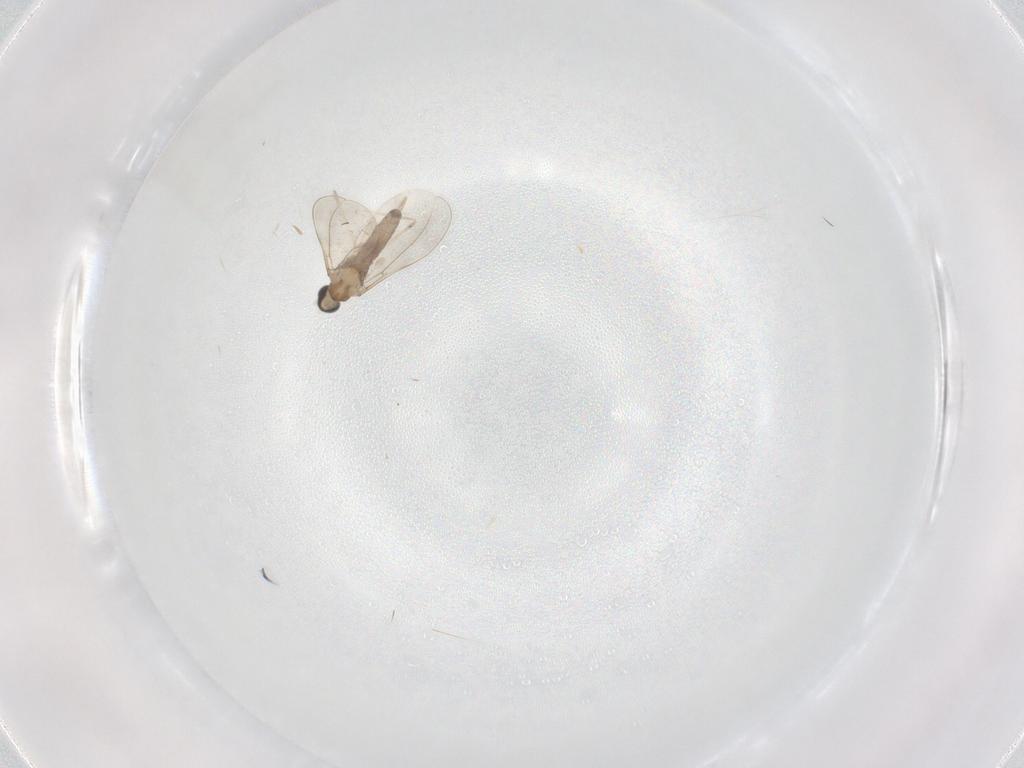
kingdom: Animalia
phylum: Arthropoda
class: Insecta
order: Diptera
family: Cecidomyiidae
